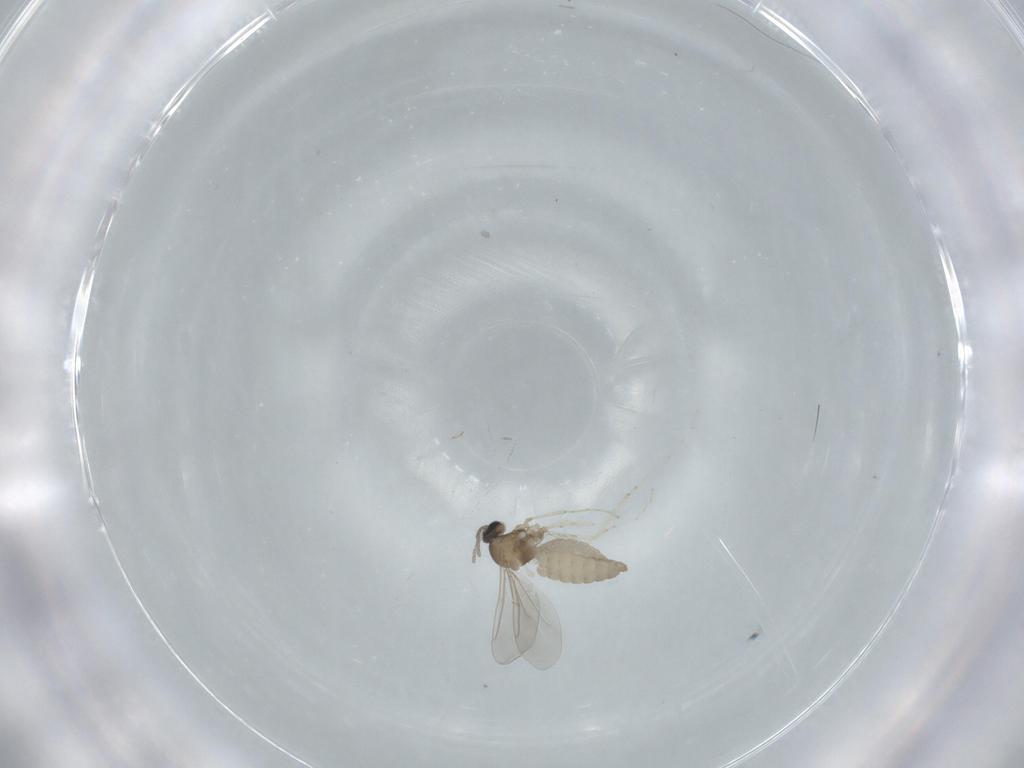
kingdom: Animalia
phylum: Arthropoda
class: Insecta
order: Diptera
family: Cecidomyiidae
